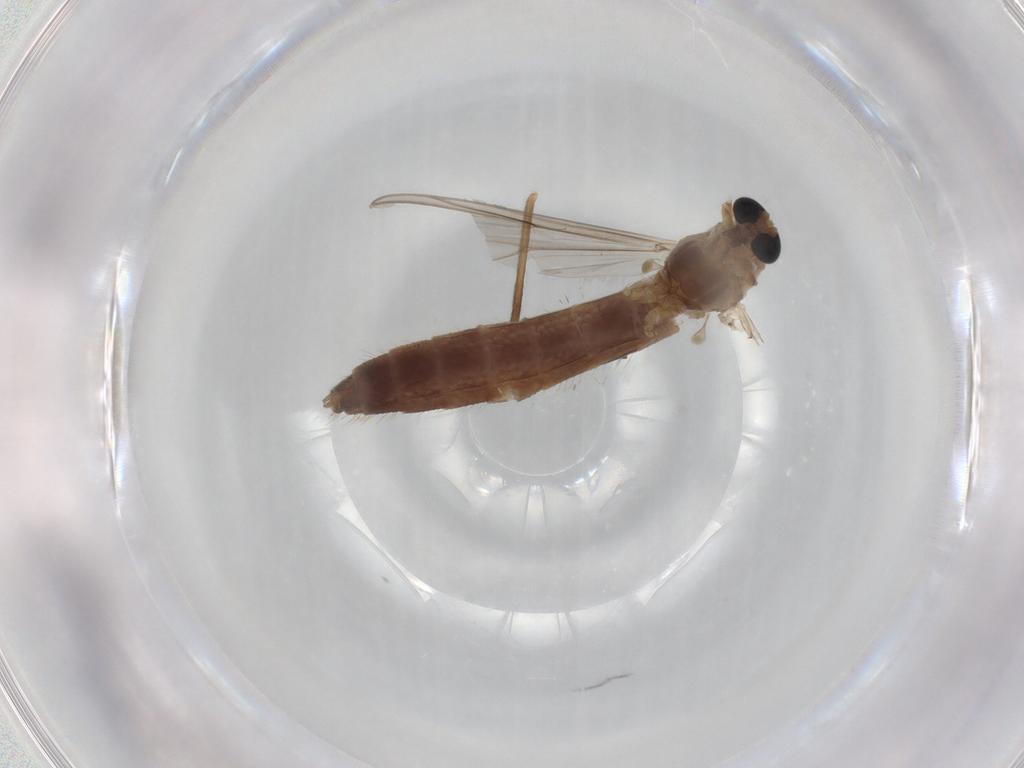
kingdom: Animalia
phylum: Arthropoda
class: Insecta
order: Diptera
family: Chironomidae
